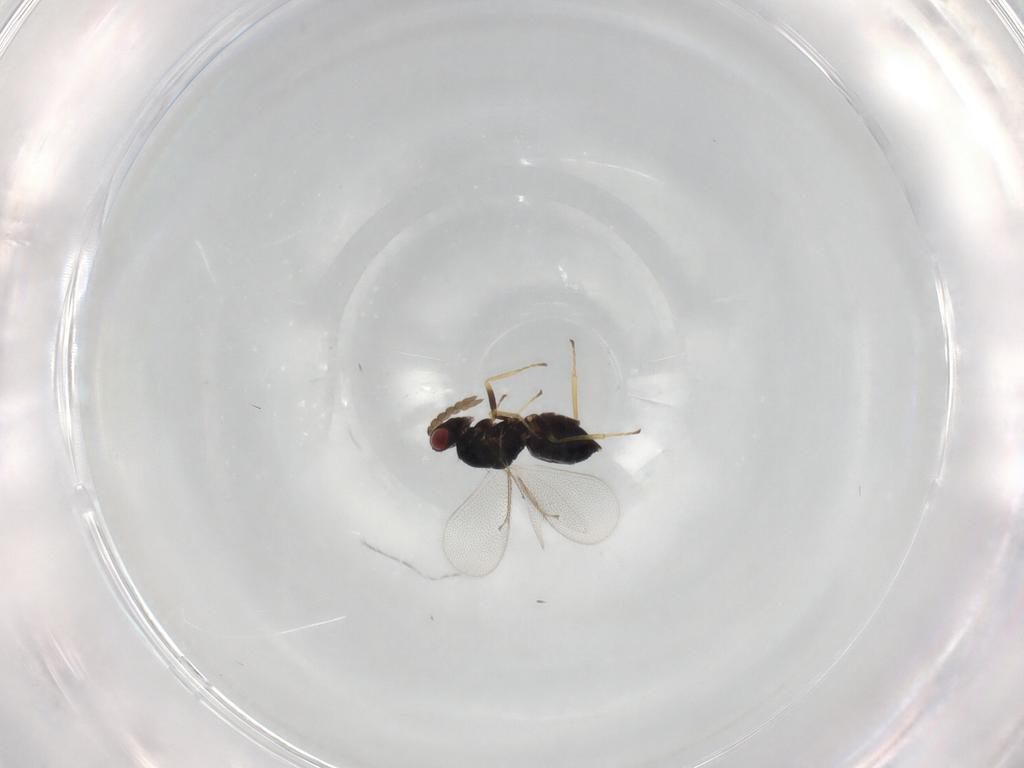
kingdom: Animalia
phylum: Arthropoda
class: Insecta
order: Hymenoptera
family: Eulophidae
